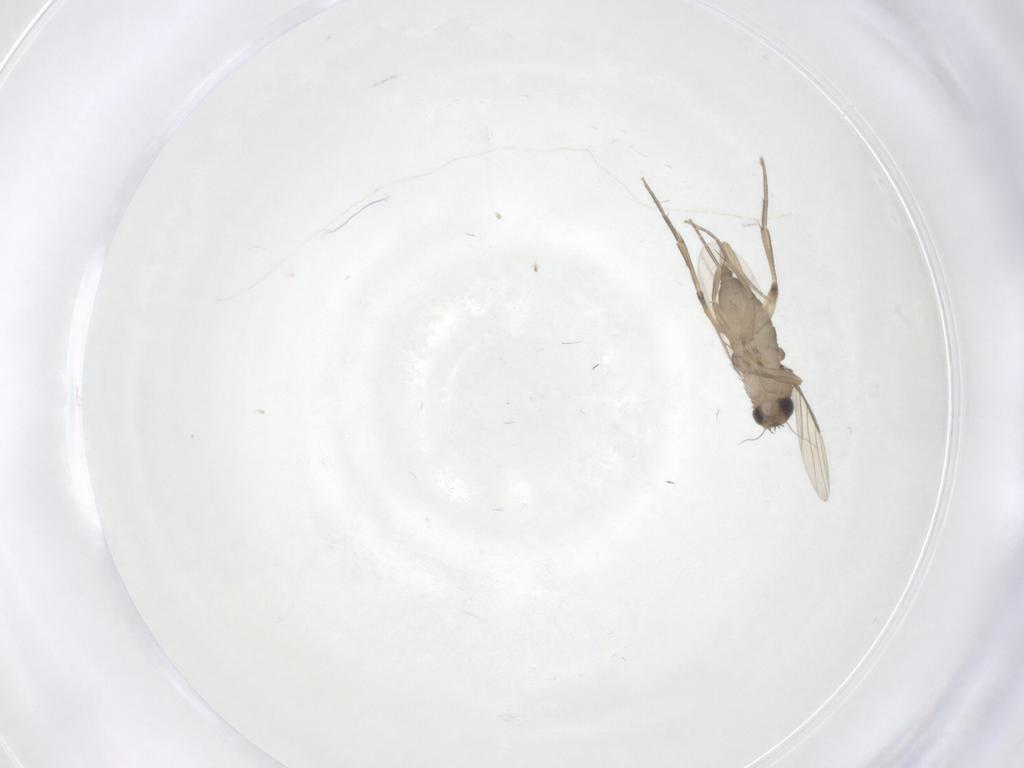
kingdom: Animalia
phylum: Arthropoda
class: Insecta
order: Diptera
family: Phoridae
